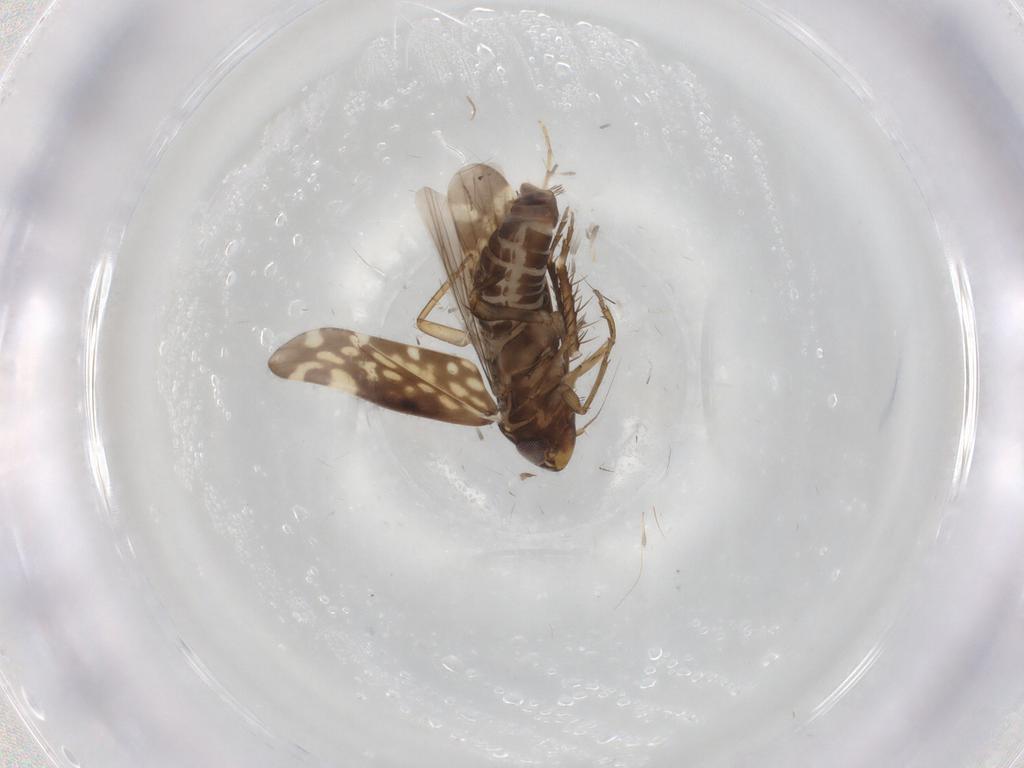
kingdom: Animalia
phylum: Arthropoda
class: Insecta
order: Hemiptera
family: Cicadellidae
